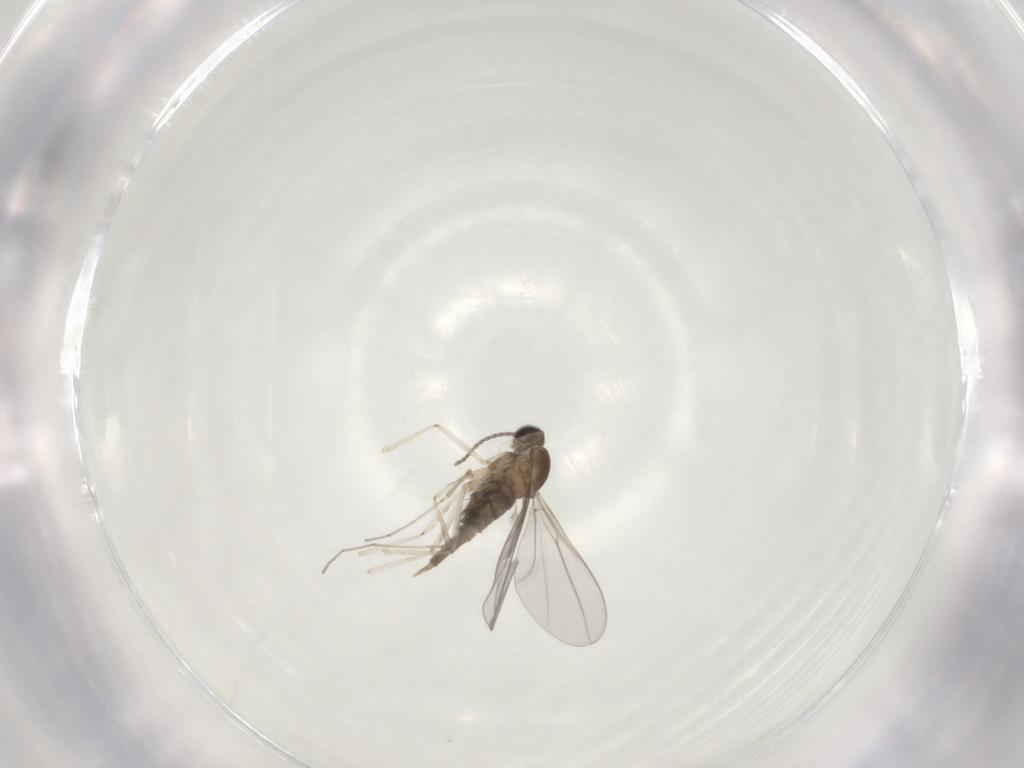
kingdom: Animalia
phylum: Arthropoda
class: Insecta
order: Diptera
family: Cecidomyiidae
